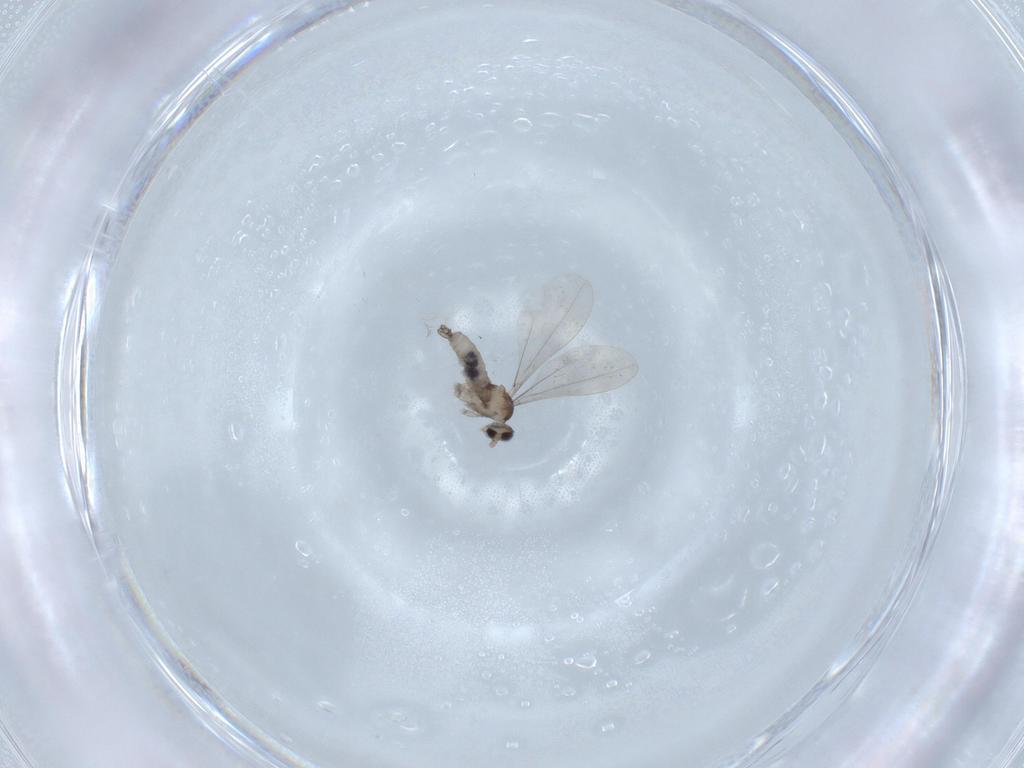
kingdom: Animalia
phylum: Arthropoda
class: Insecta
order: Diptera
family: Cecidomyiidae
